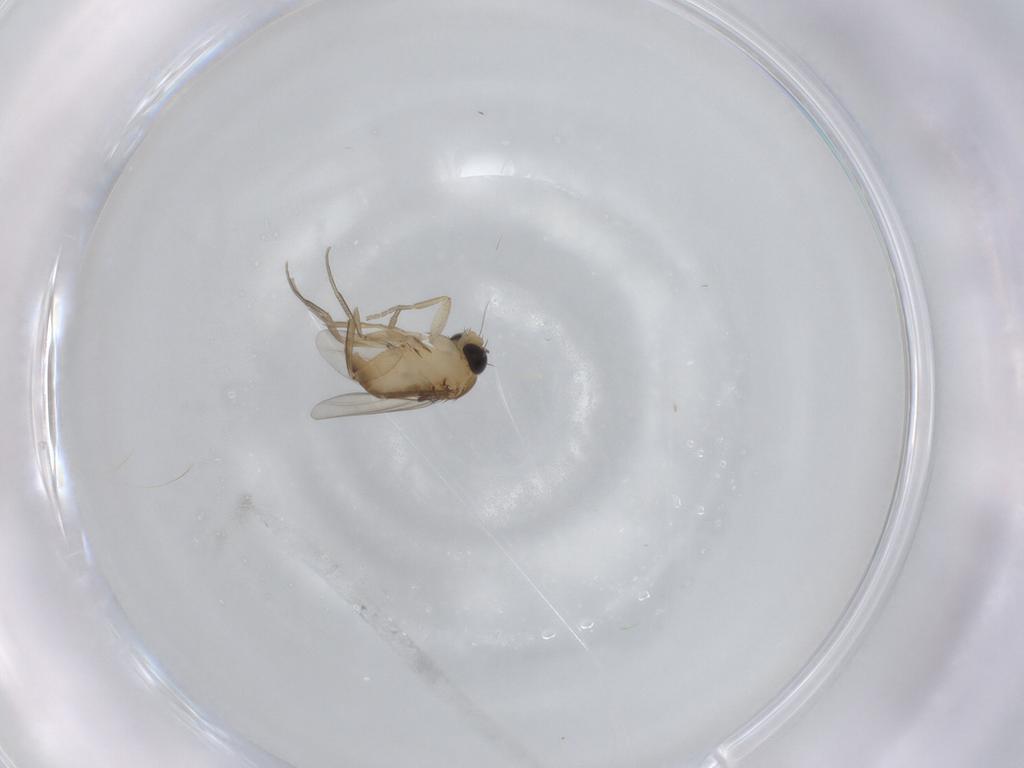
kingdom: Animalia
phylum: Arthropoda
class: Insecta
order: Diptera
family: Phoridae
